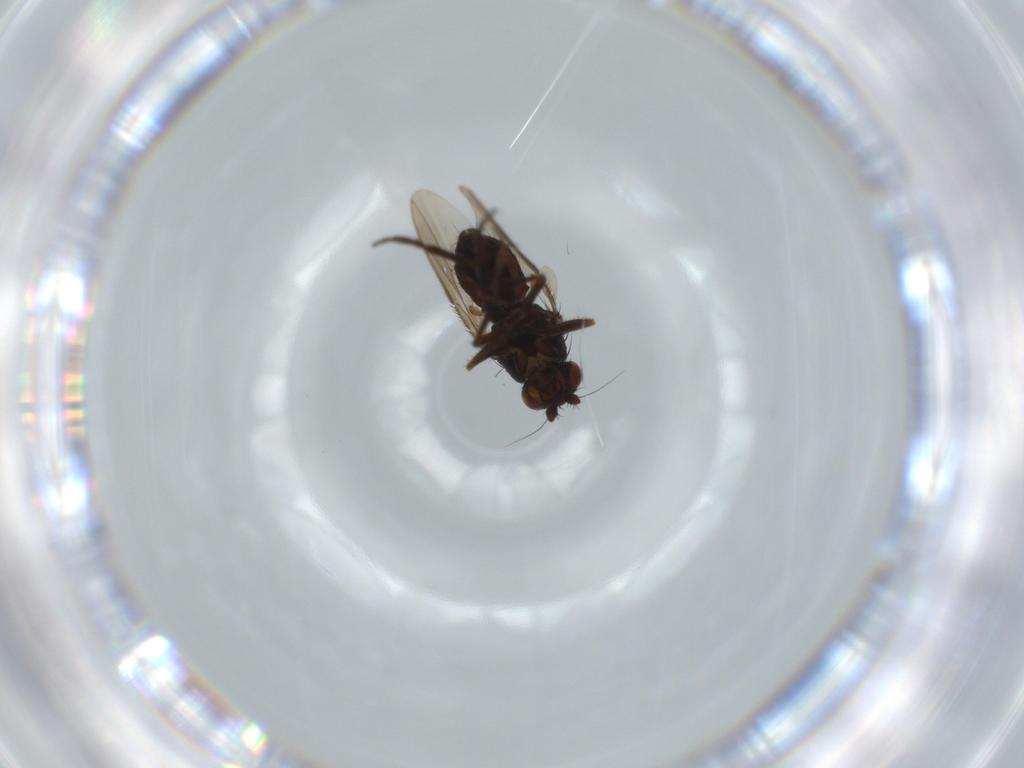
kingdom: Animalia
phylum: Arthropoda
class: Insecta
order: Diptera
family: Sphaeroceridae
